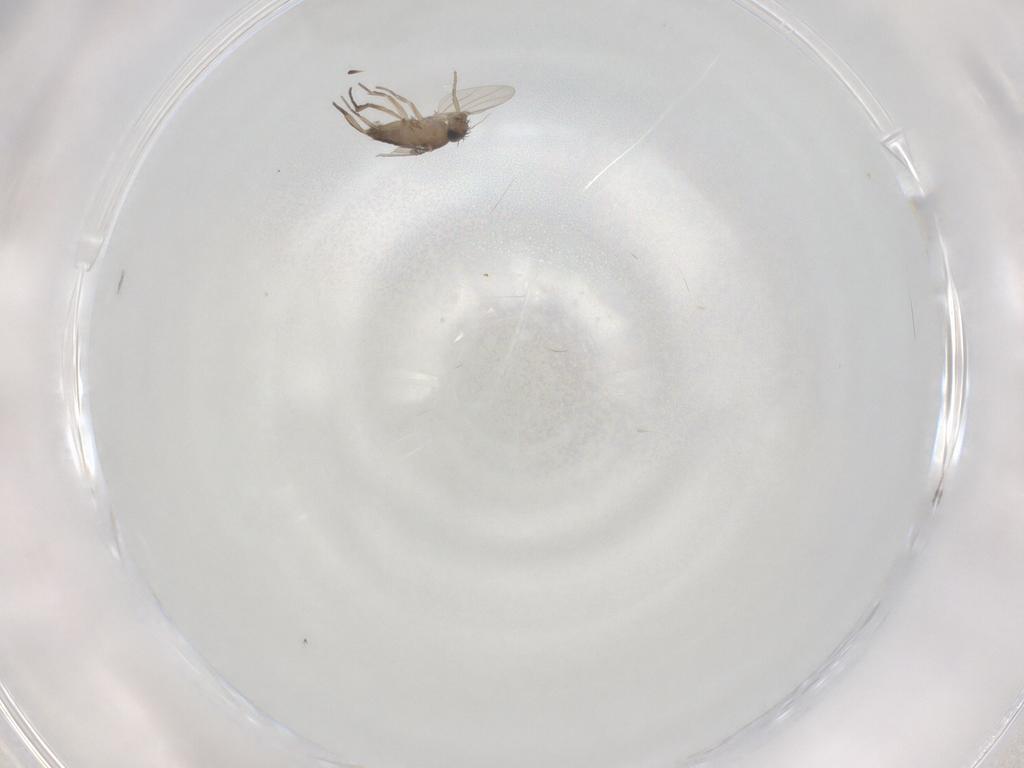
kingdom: Animalia
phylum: Arthropoda
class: Insecta
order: Diptera
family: Phoridae
